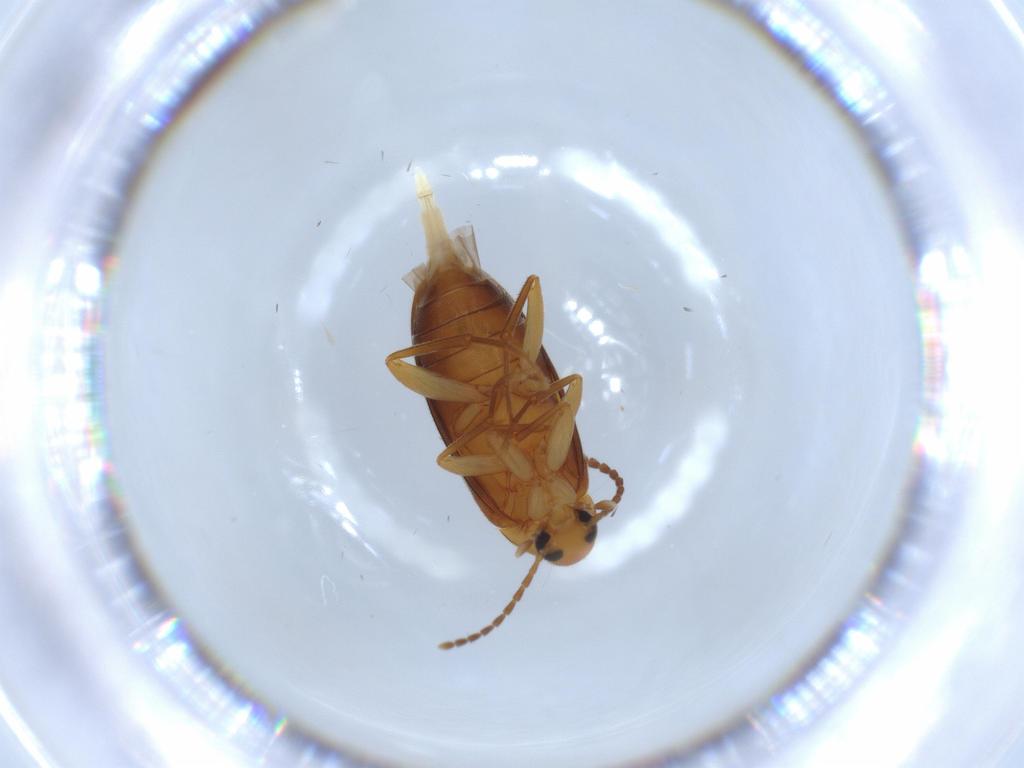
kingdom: Animalia
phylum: Arthropoda
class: Insecta
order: Coleoptera
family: Scraptiidae
